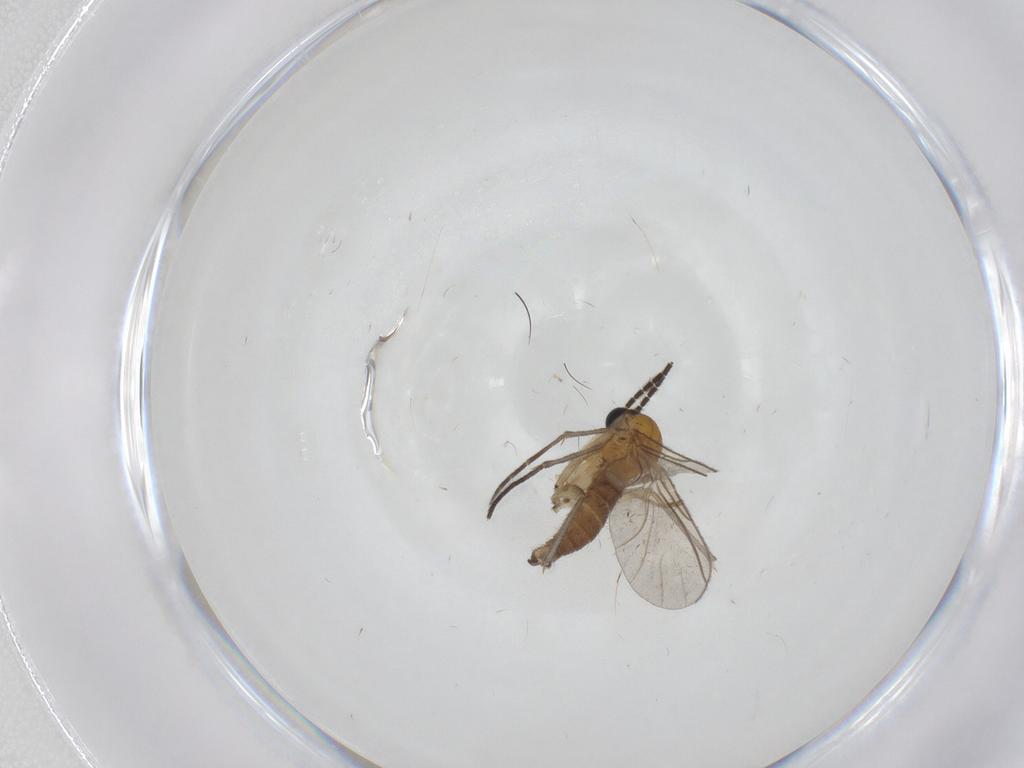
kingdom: Animalia
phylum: Arthropoda
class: Insecta
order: Diptera
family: Sciaridae
